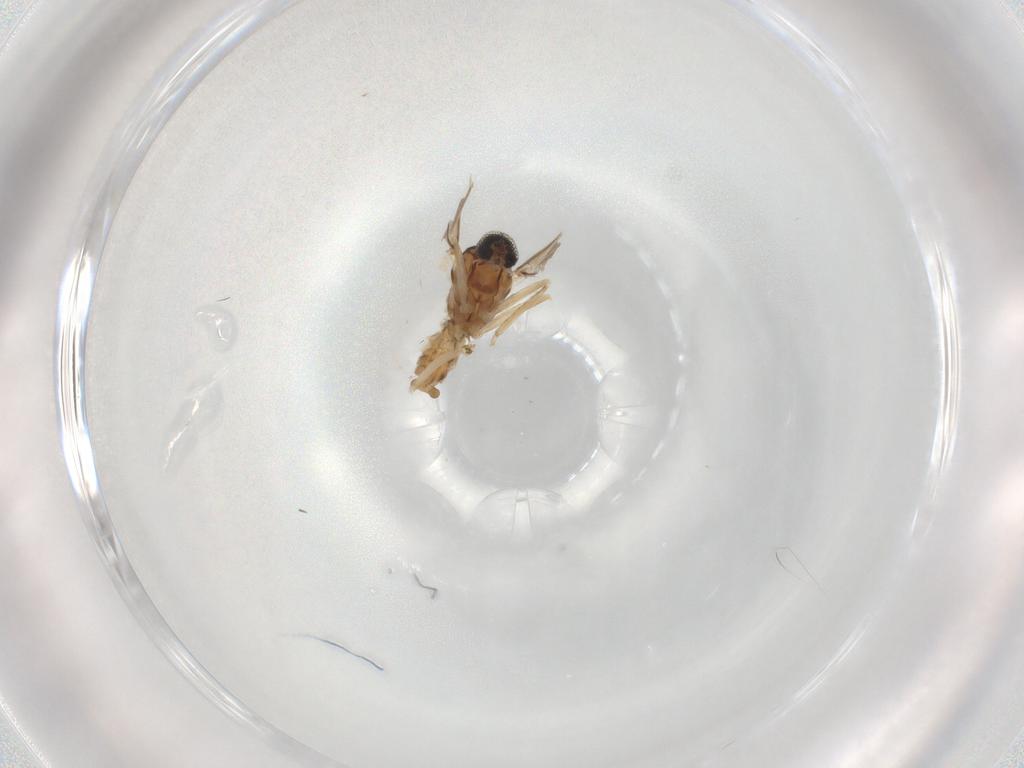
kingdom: Animalia
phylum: Arthropoda
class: Insecta
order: Diptera
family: Cecidomyiidae
